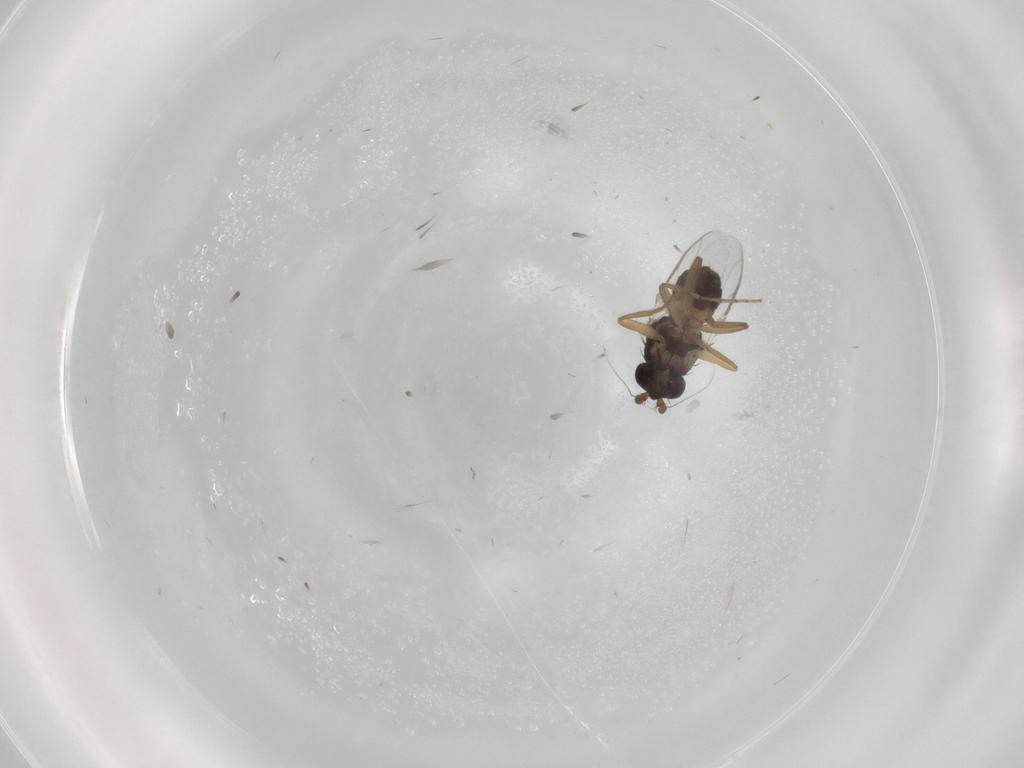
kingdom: Animalia
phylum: Arthropoda
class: Insecta
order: Diptera
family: Sphaeroceridae
